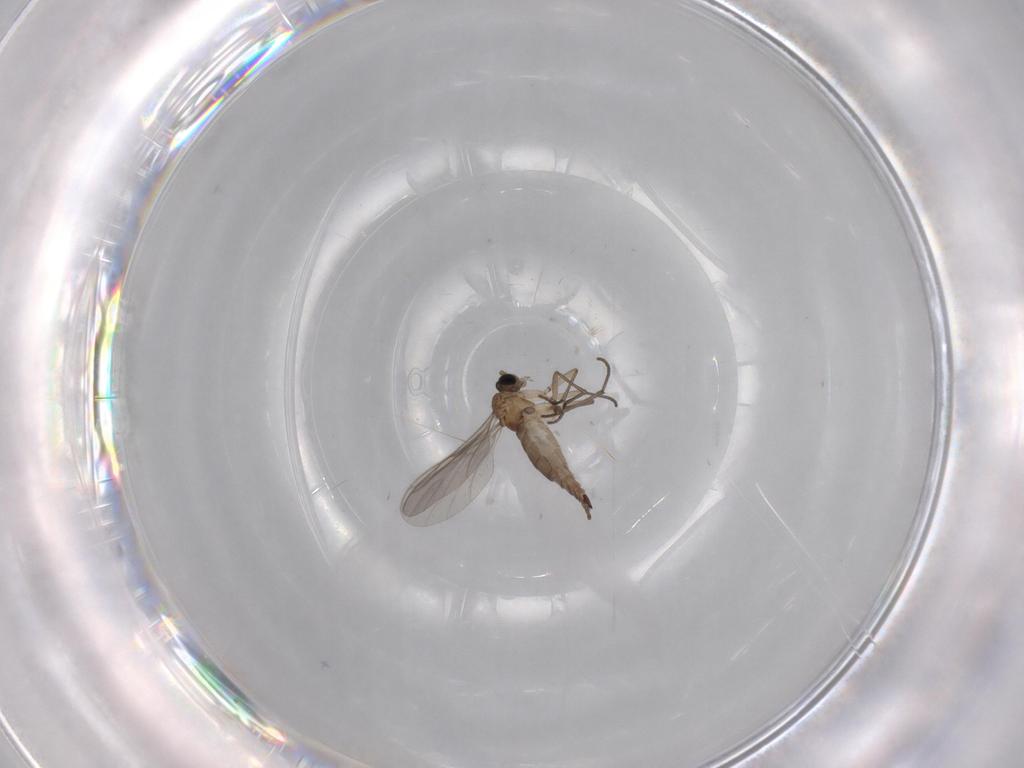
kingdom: Animalia
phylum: Arthropoda
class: Insecta
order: Diptera
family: Sciaridae
